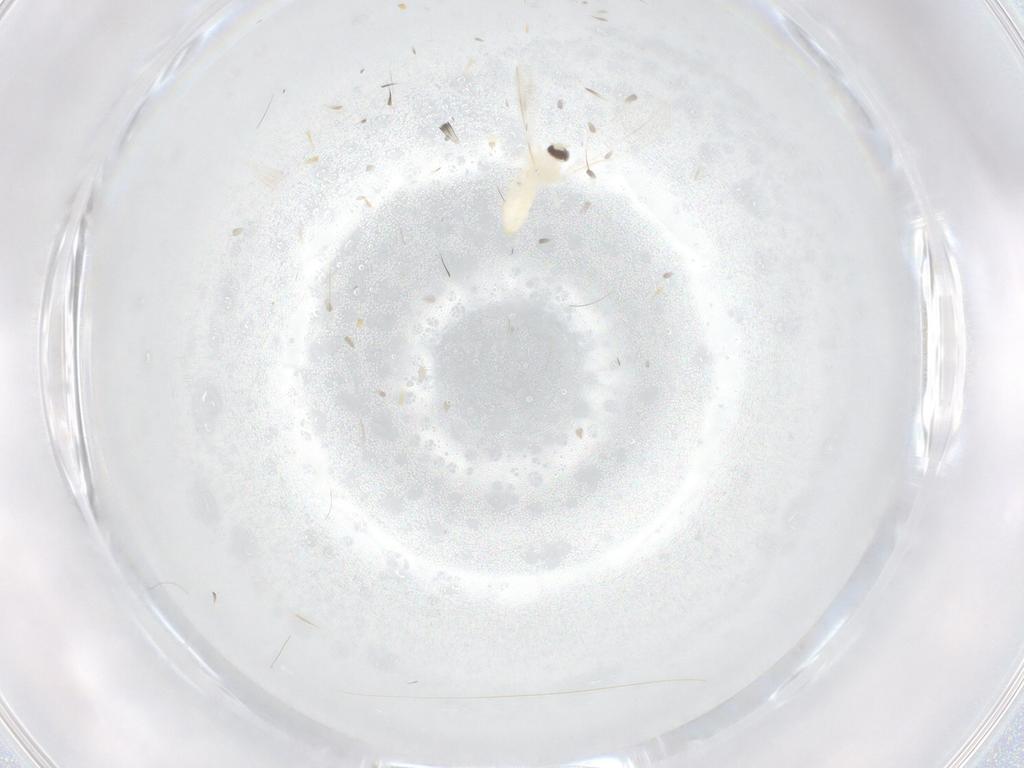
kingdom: Animalia
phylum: Arthropoda
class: Insecta
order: Diptera
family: Cecidomyiidae
